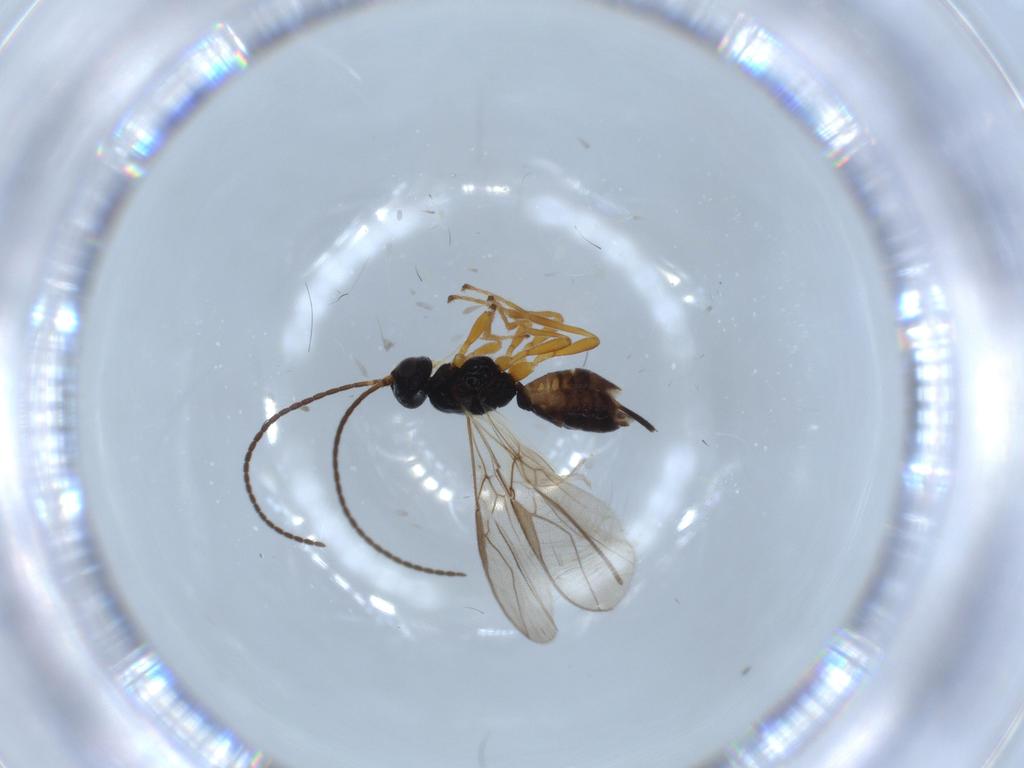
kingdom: Animalia
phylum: Arthropoda
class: Insecta
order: Hymenoptera
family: Braconidae
